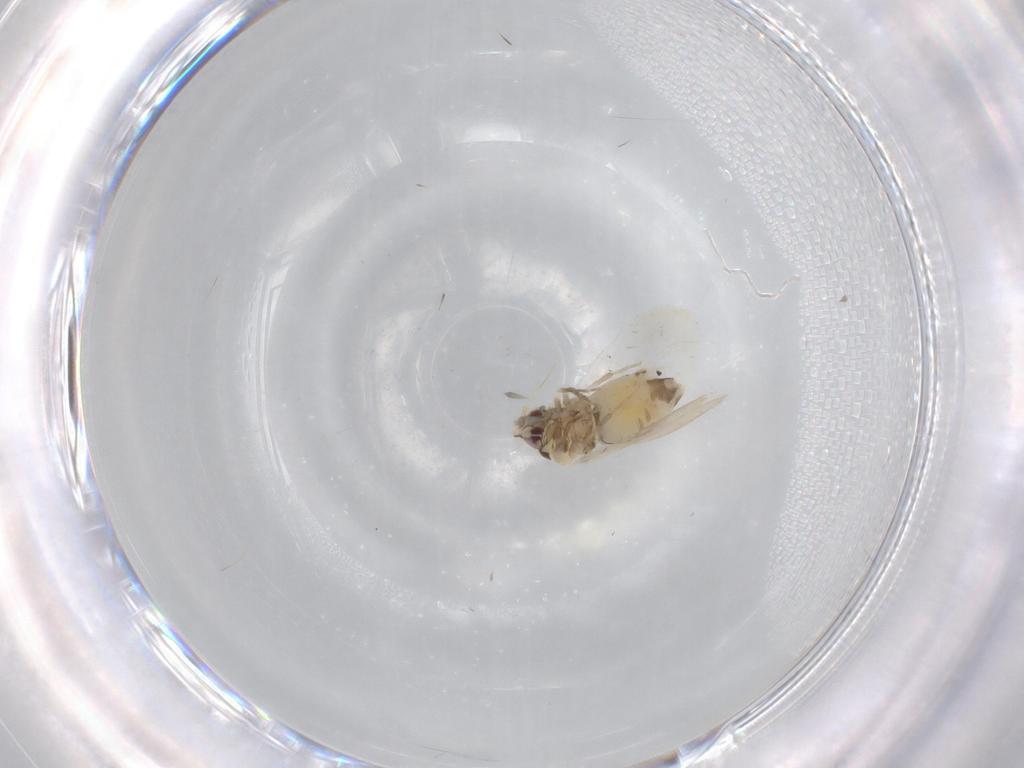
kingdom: Animalia
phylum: Arthropoda
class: Insecta
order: Hemiptera
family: Aleyrodidae
